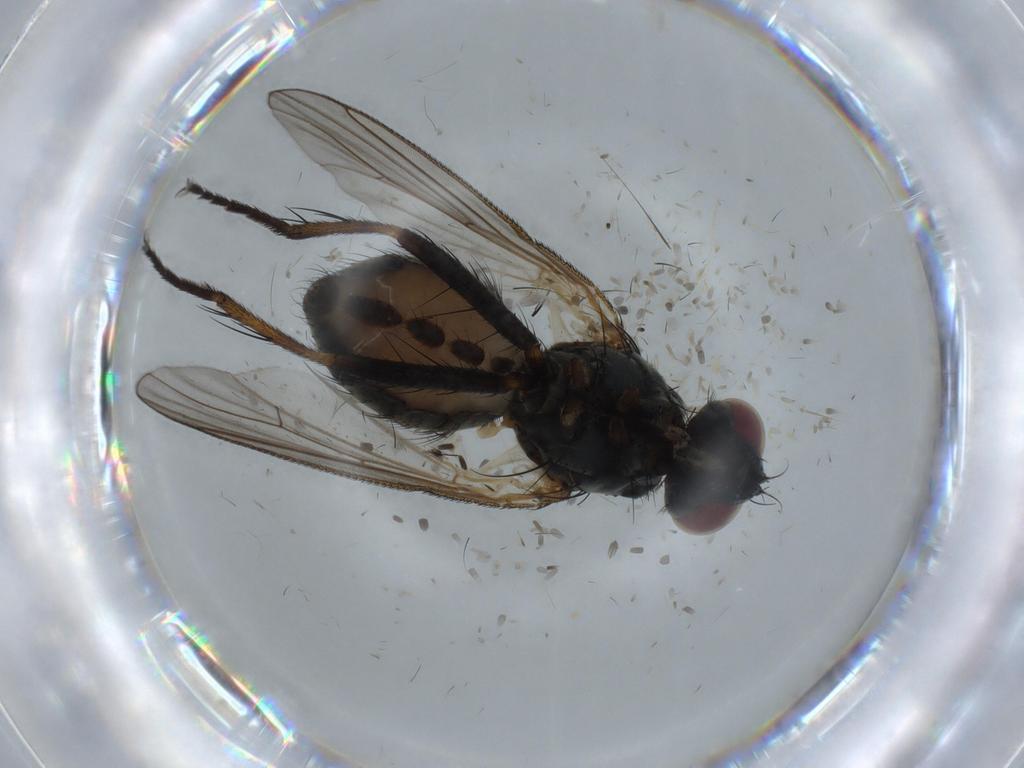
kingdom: Animalia
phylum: Arthropoda
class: Insecta
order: Diptera
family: Dolichopodidae
